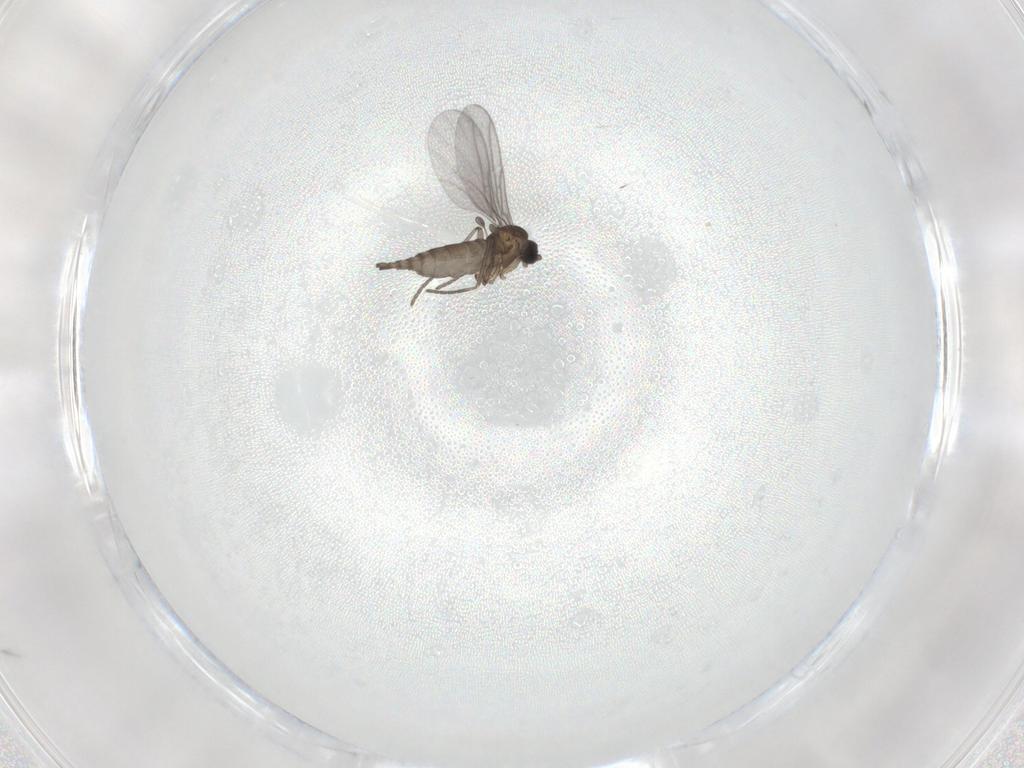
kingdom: Animalia
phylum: Arthropoda
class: Insecta
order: Diptera
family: Sciaridae
